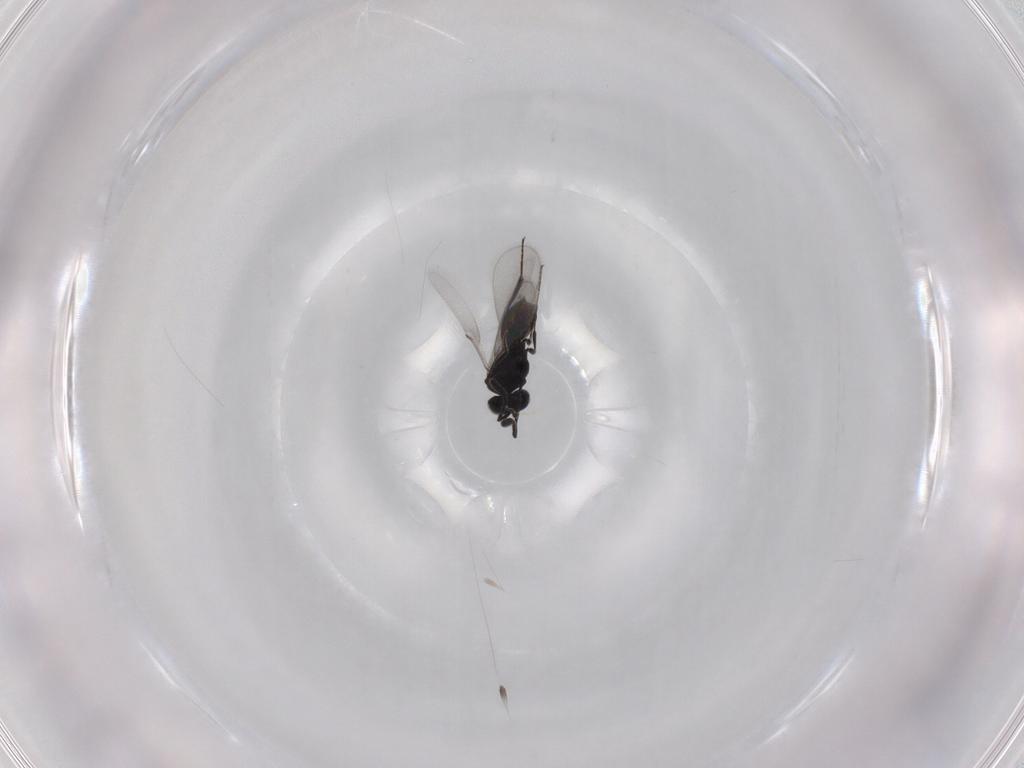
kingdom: Animalia
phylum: Arthropoda
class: Insecta
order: Hymenoptera
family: Scelionidae
